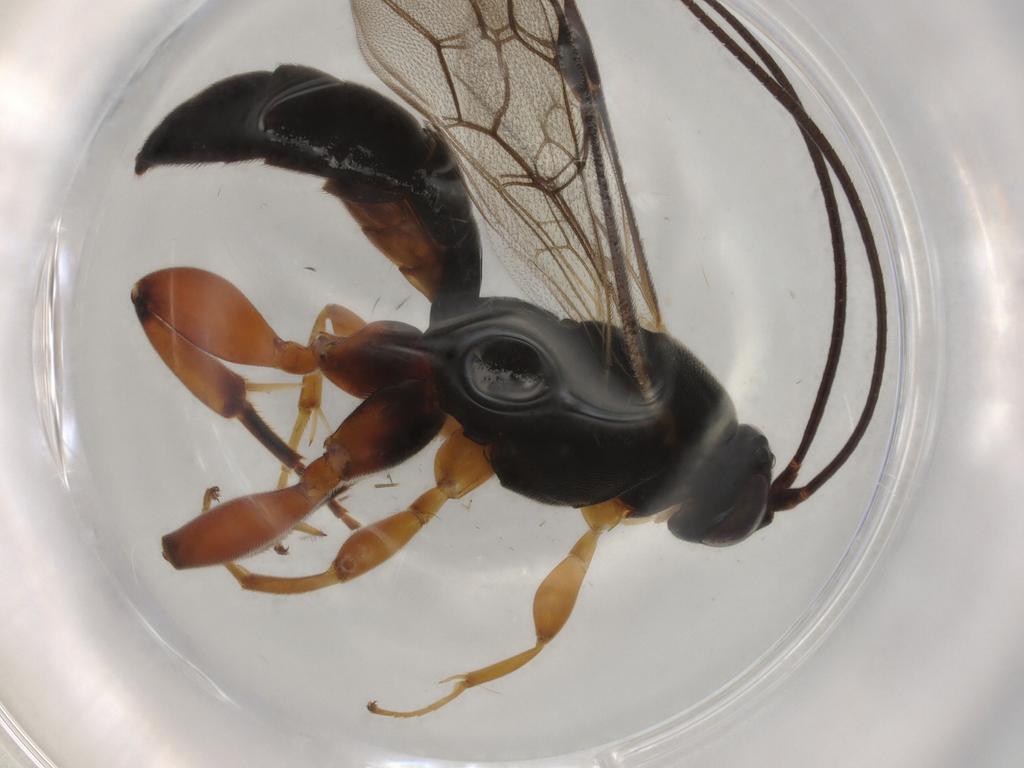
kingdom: Animalia
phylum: Arthropoda
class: Insecta
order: Hymenoptera
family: Ichneumonidae
